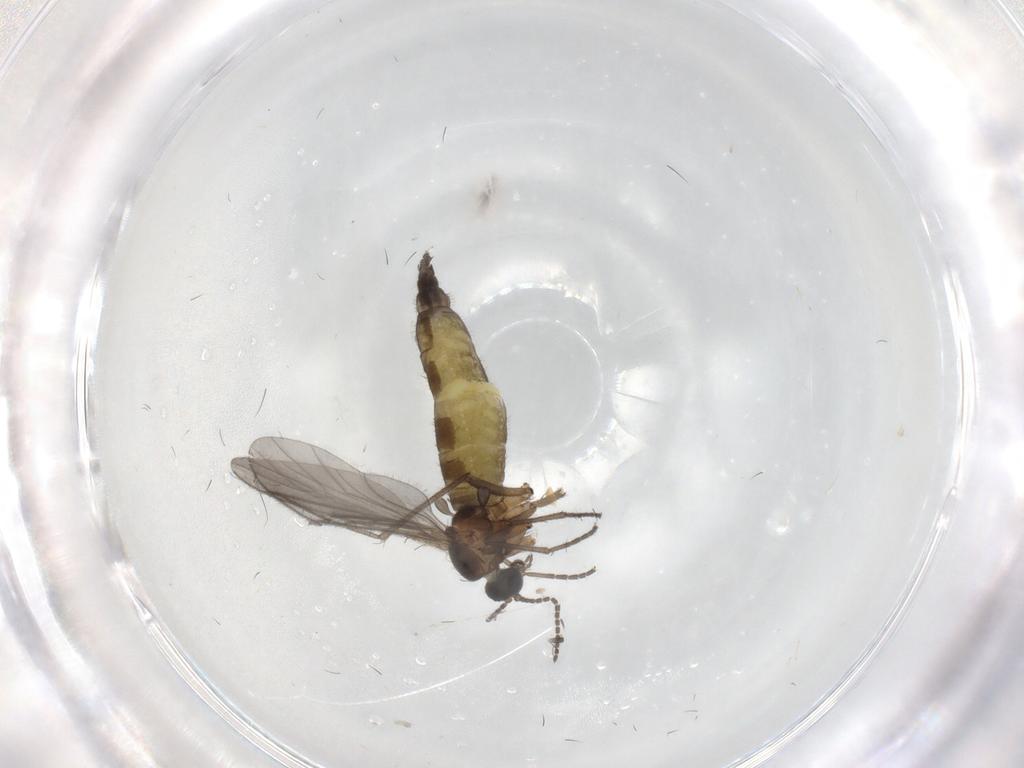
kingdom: Animalia
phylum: Arthropoda
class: Insecta
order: Diptera
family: Sciaridae
